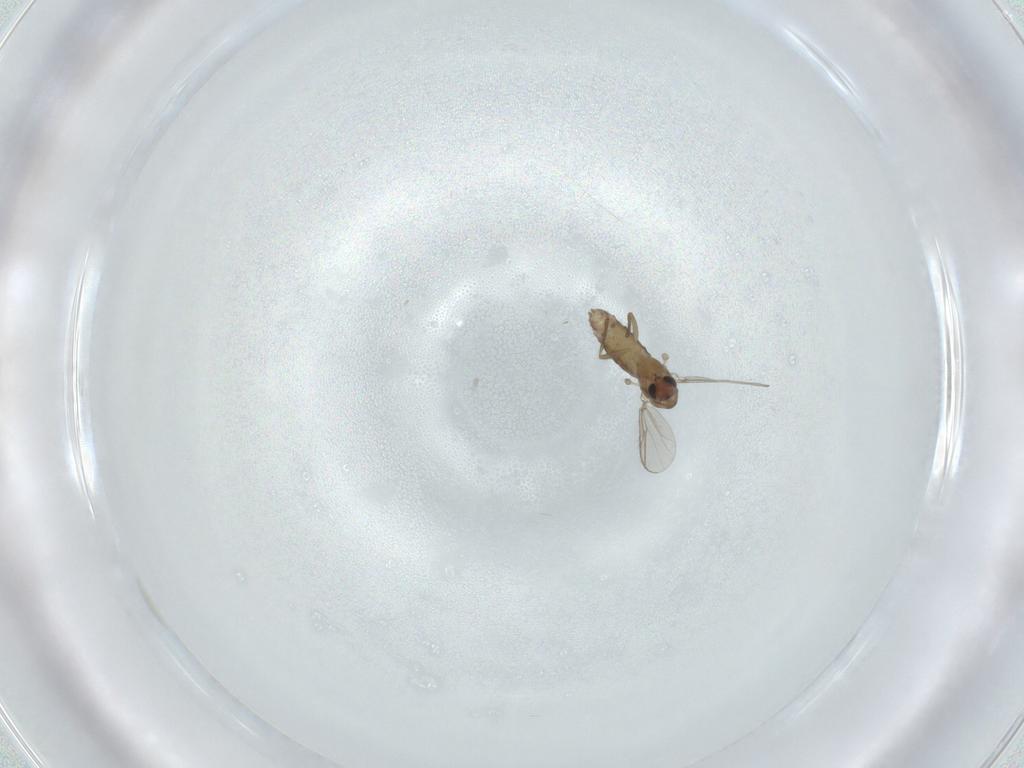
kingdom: Animalia
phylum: Arthropoda
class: Insecta
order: Diptera
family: Chironomidae
